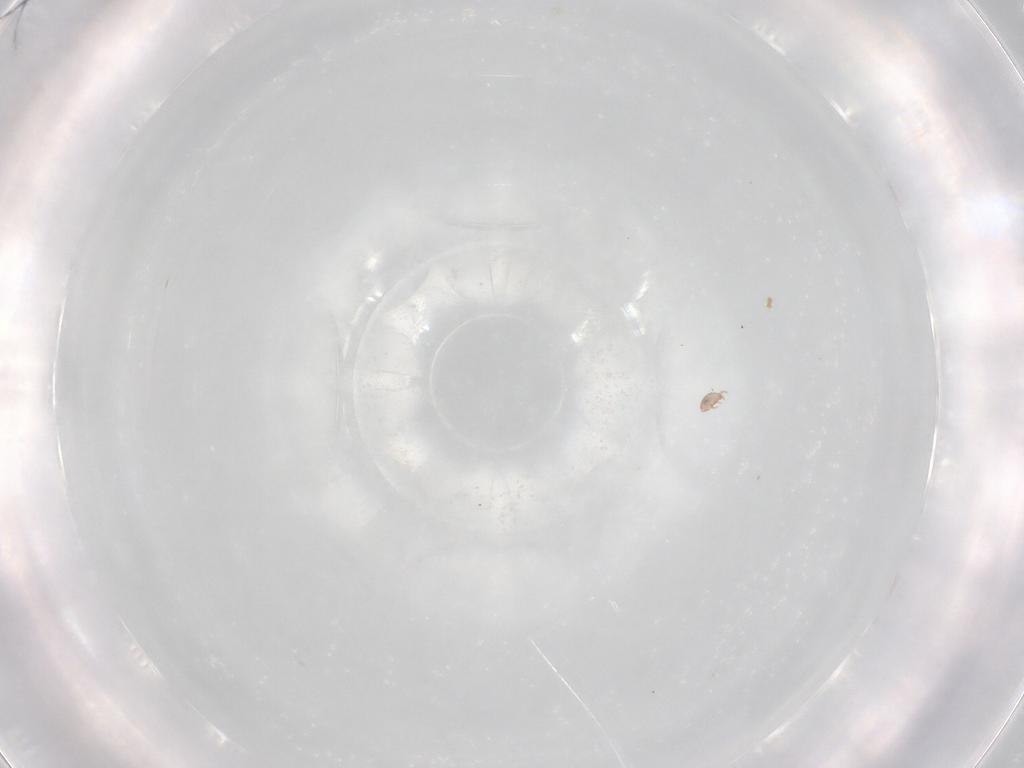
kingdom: Animalia
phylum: Arthropoda
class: Arachnida
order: Sarcoptiformes
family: Eremaeidae
